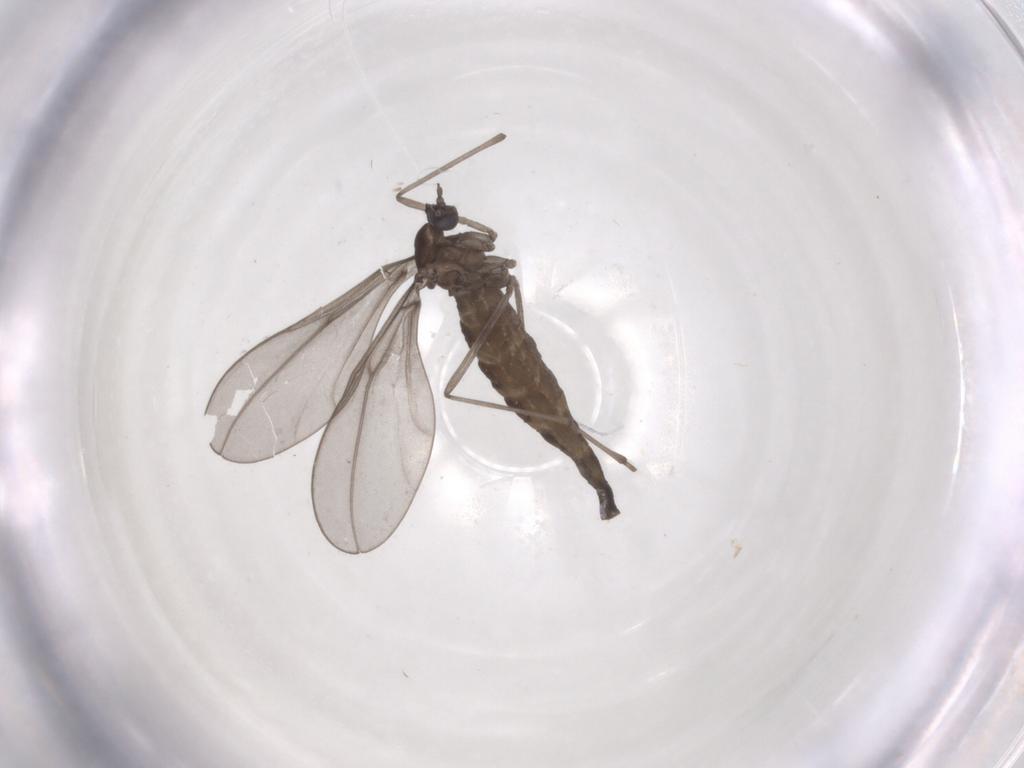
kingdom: Animalia
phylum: Arthropoda
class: Insecta
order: Diptera
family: Cecidomyiidae
